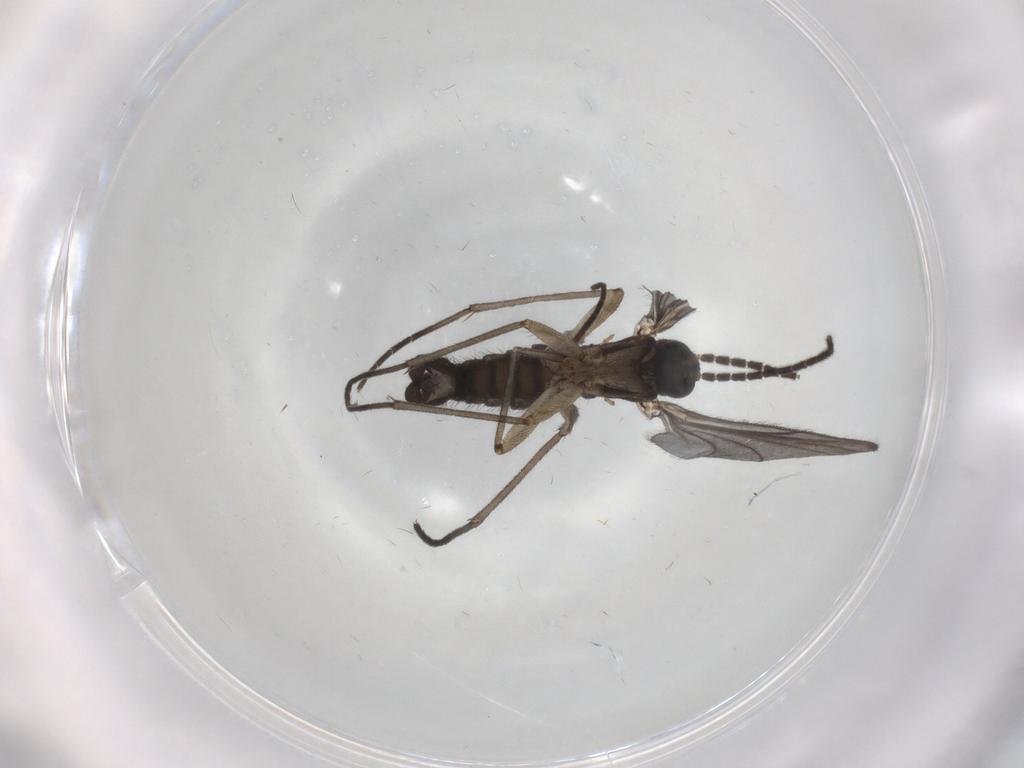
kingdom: Animalia
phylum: Arthropoda
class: Insecta
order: Diptera
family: Sciaridae
